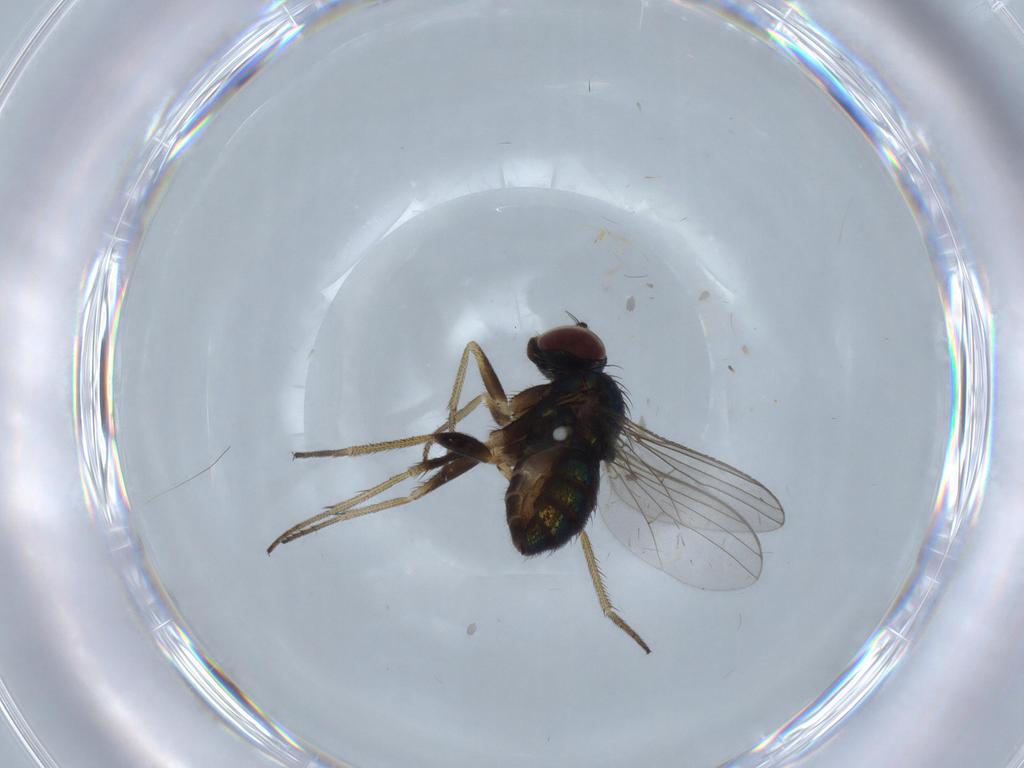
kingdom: Animalia
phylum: Arthropoda
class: Insecta
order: Diptera
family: Dolichopodidae
